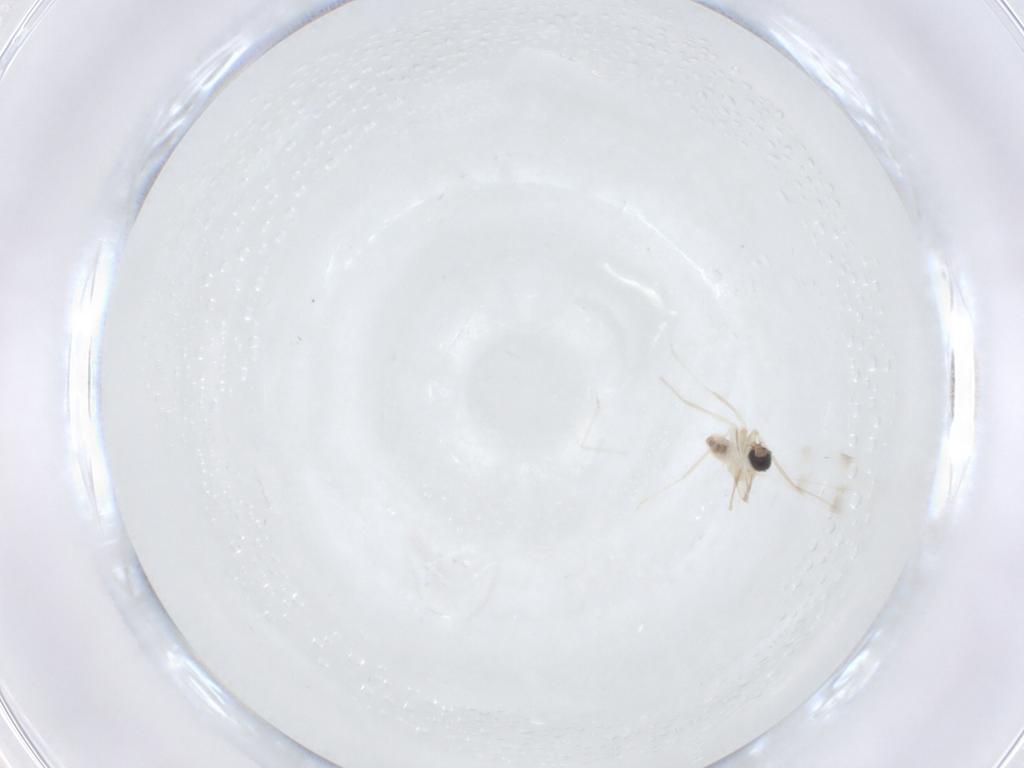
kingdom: Animalia
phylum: Arthropoda
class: Insecta
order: Diptera
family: Cecidomyiidae
